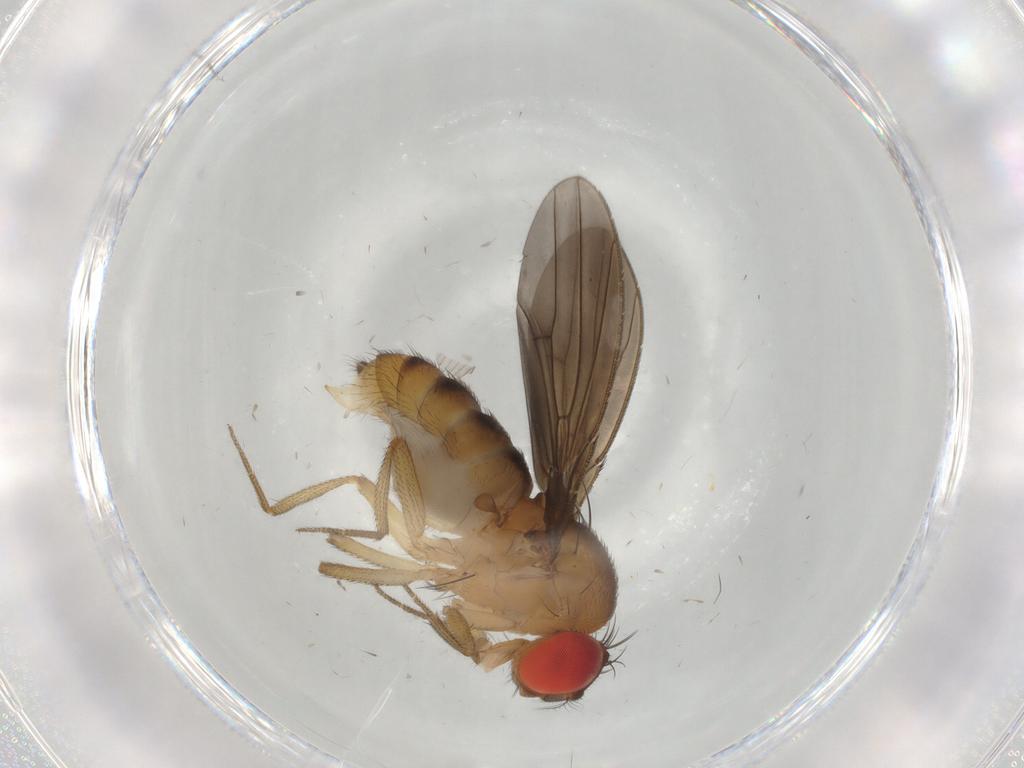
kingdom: Animalia
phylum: Arthropoda
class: Insecta
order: Diptera
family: Drosophilidae
